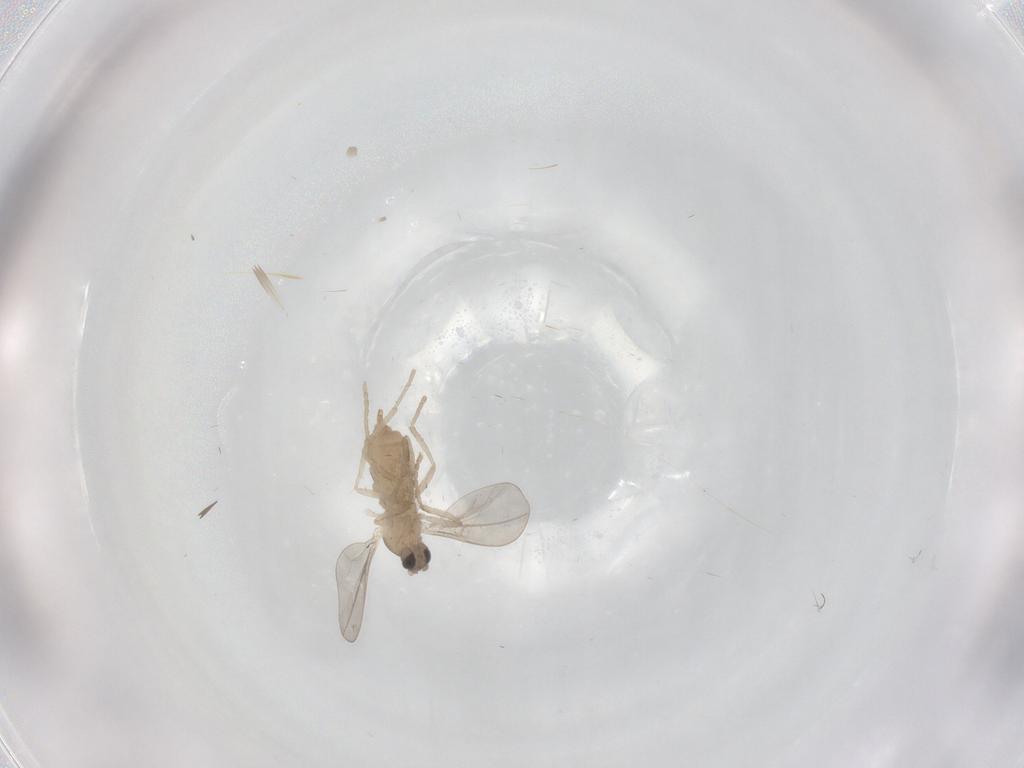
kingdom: Animalia
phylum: Arthropoda
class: Insecta
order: Diptera
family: Cecidomyiidae
